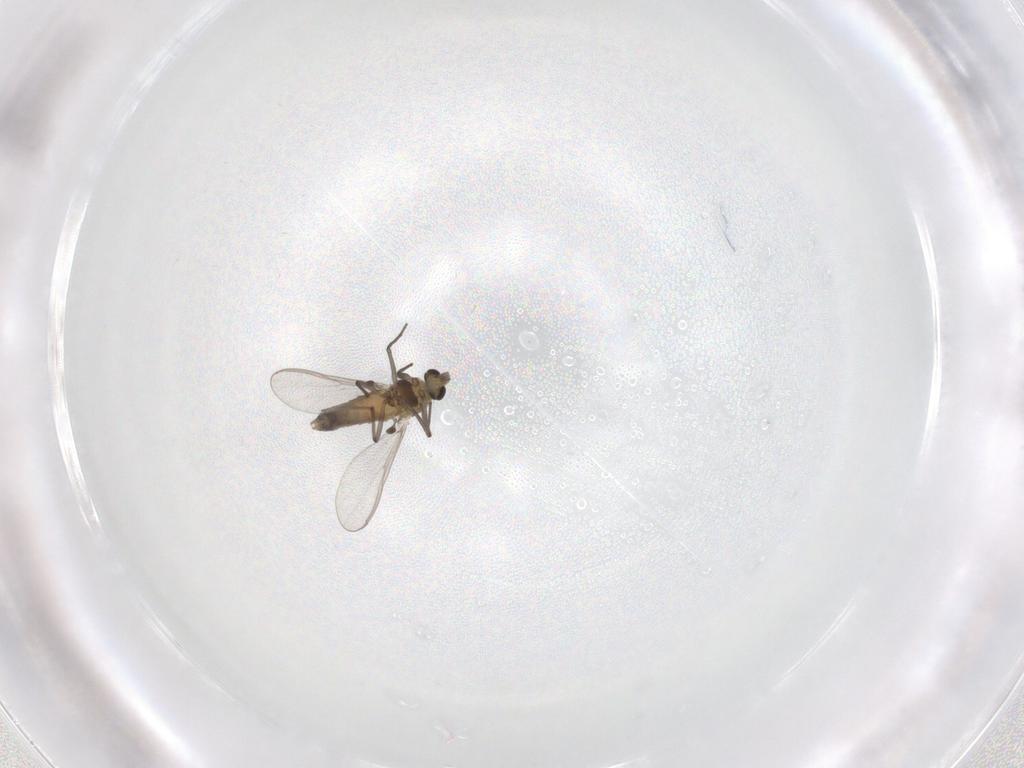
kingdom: Animalia
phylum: Arthropoda
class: Insecta
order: Diptera
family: Chironomidae
